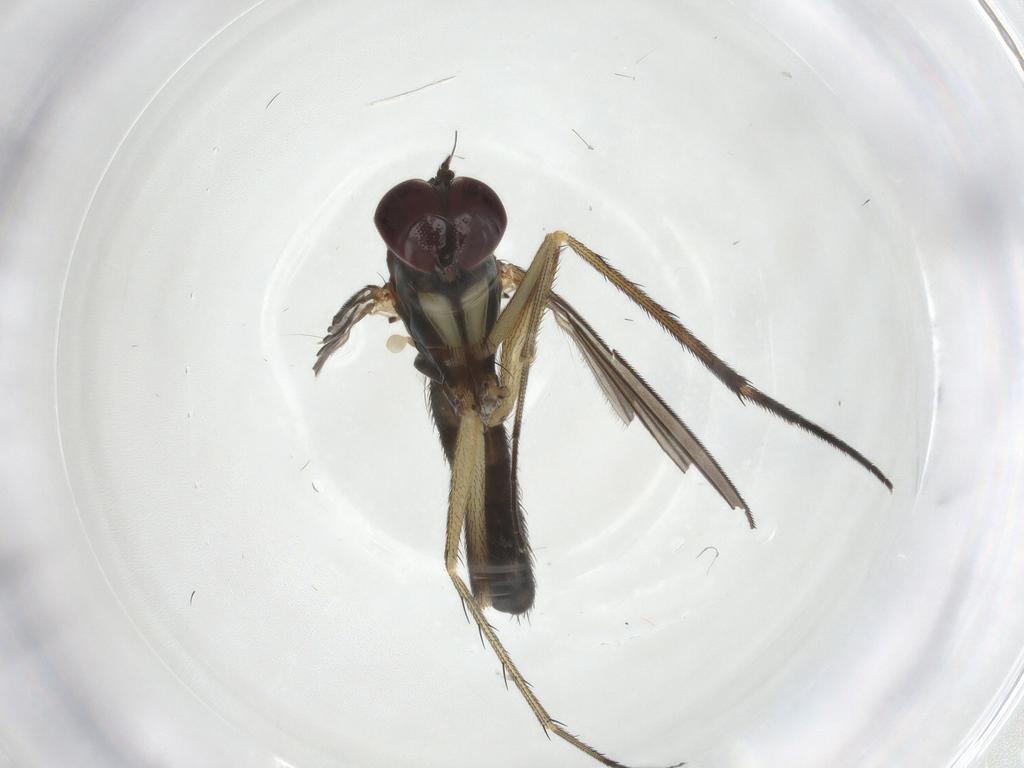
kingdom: Animalia
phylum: Arthropoda
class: Insecta
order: Diptera
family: Dolichopodidae
